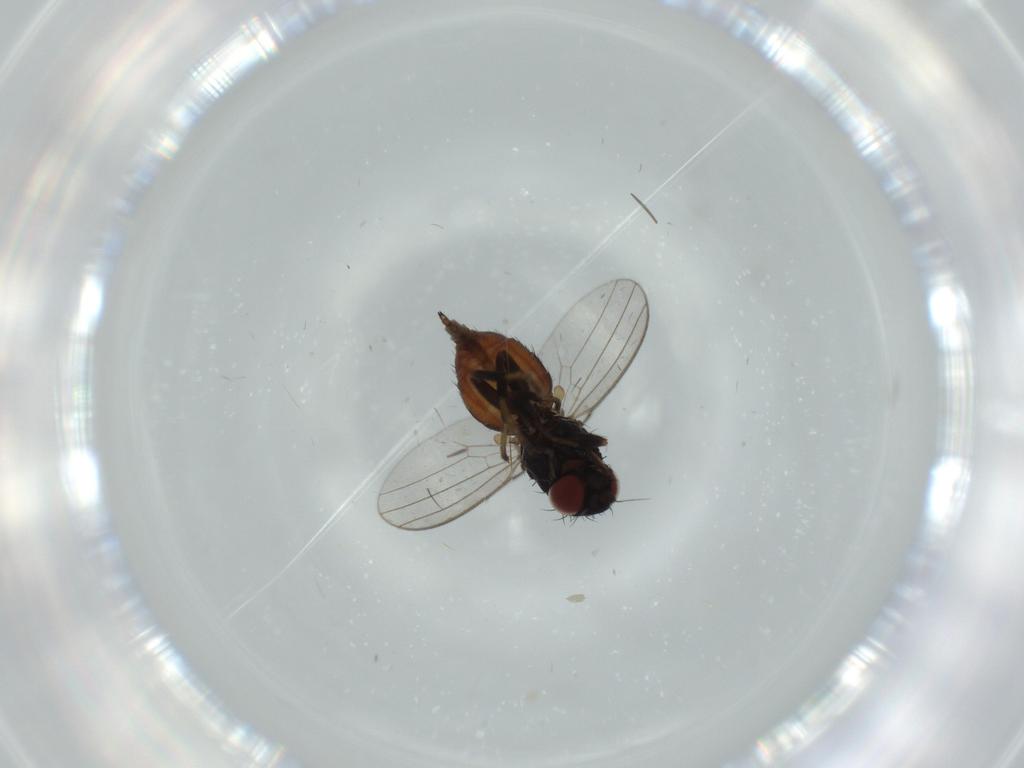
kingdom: Animalia
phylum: Arthropoda
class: Insecta
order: Diptera
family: Milichiidae
